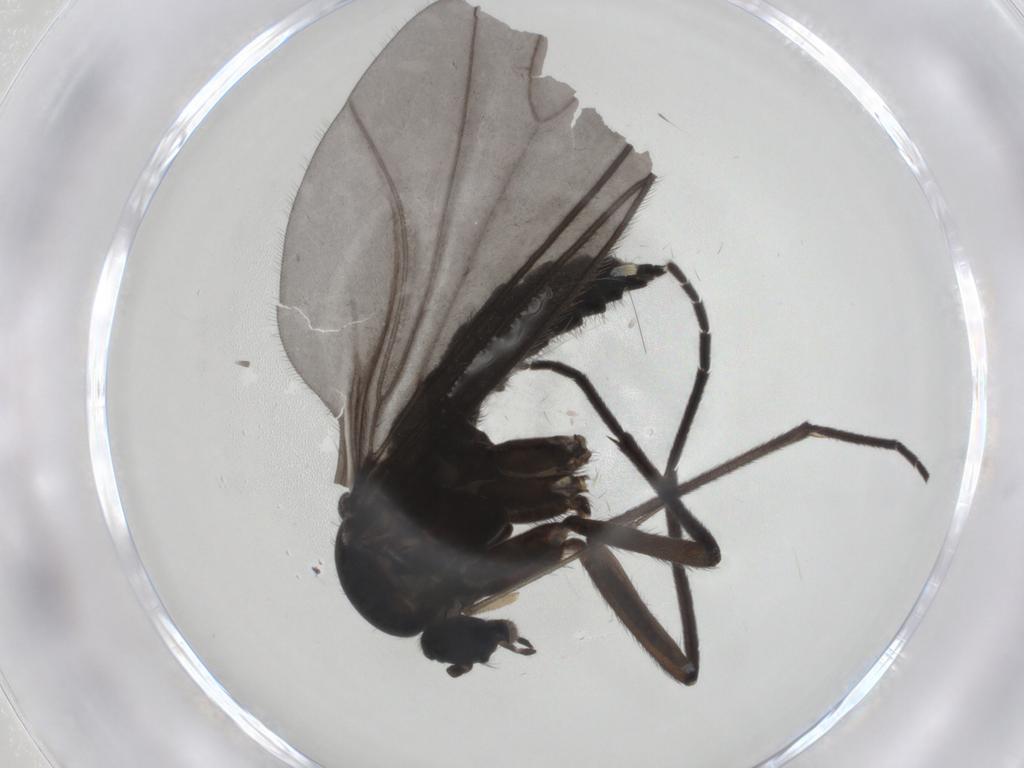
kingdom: Animalia
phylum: Arthropoda
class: Insecta
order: Diptera
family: Sciaridae
